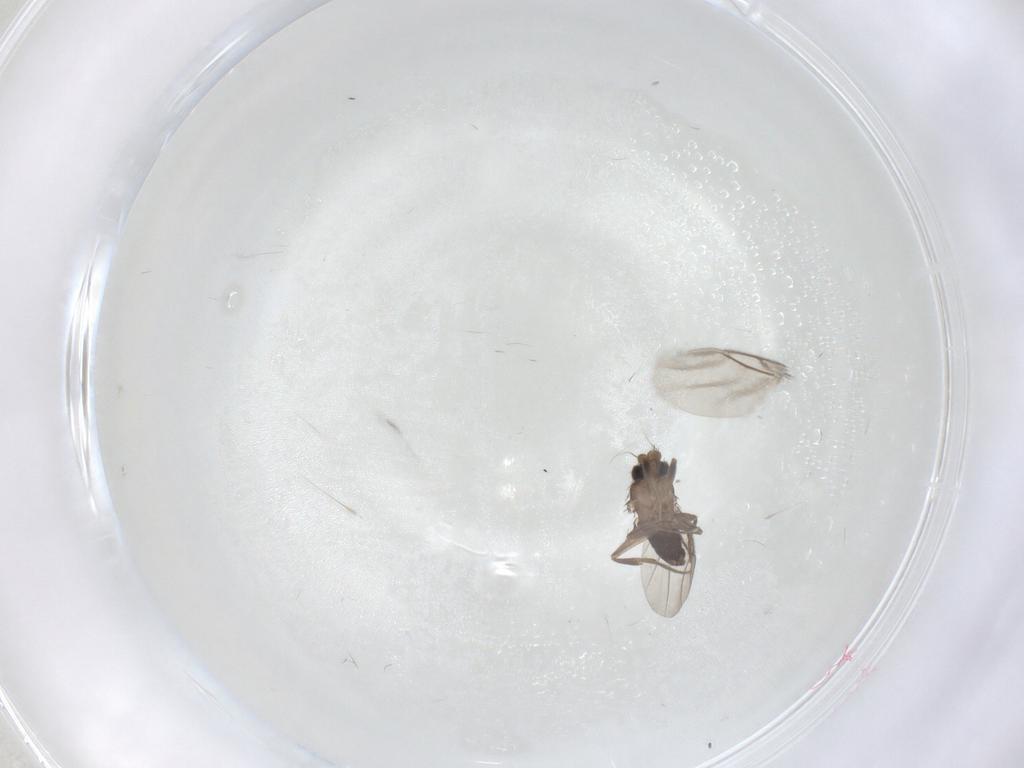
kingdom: Animalia
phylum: Arthropoda
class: Insecta
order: Diptera
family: Phoridae
